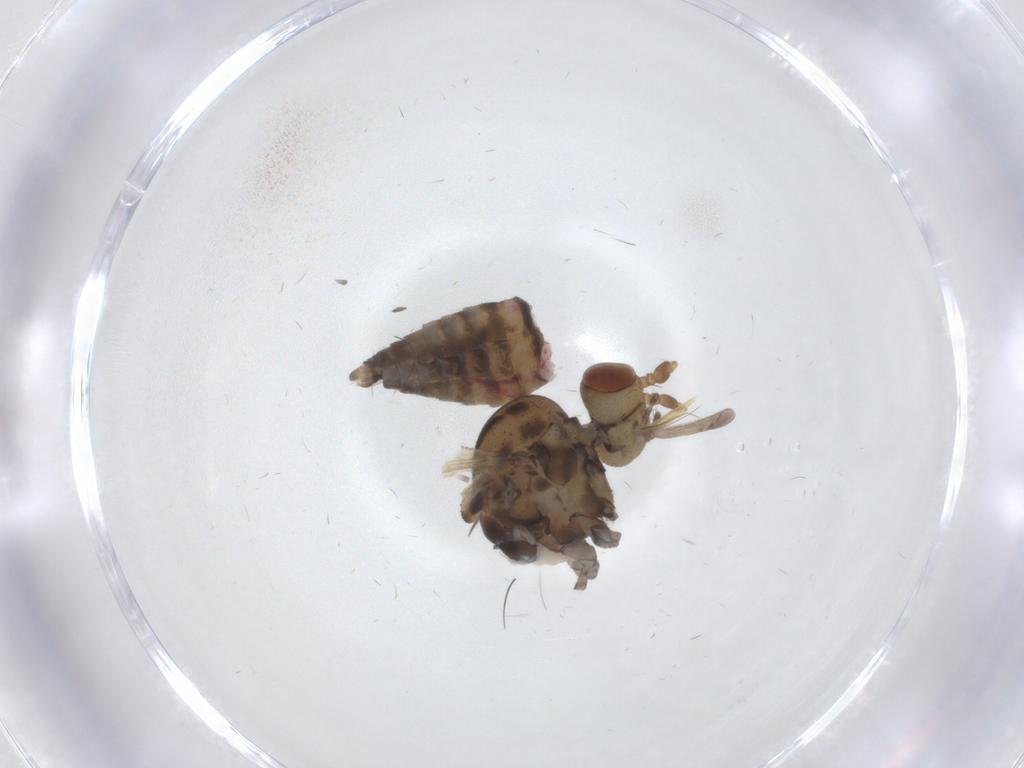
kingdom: Animalia
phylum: Arthropoda
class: Insecta
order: Diptera
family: Austroleptidae
